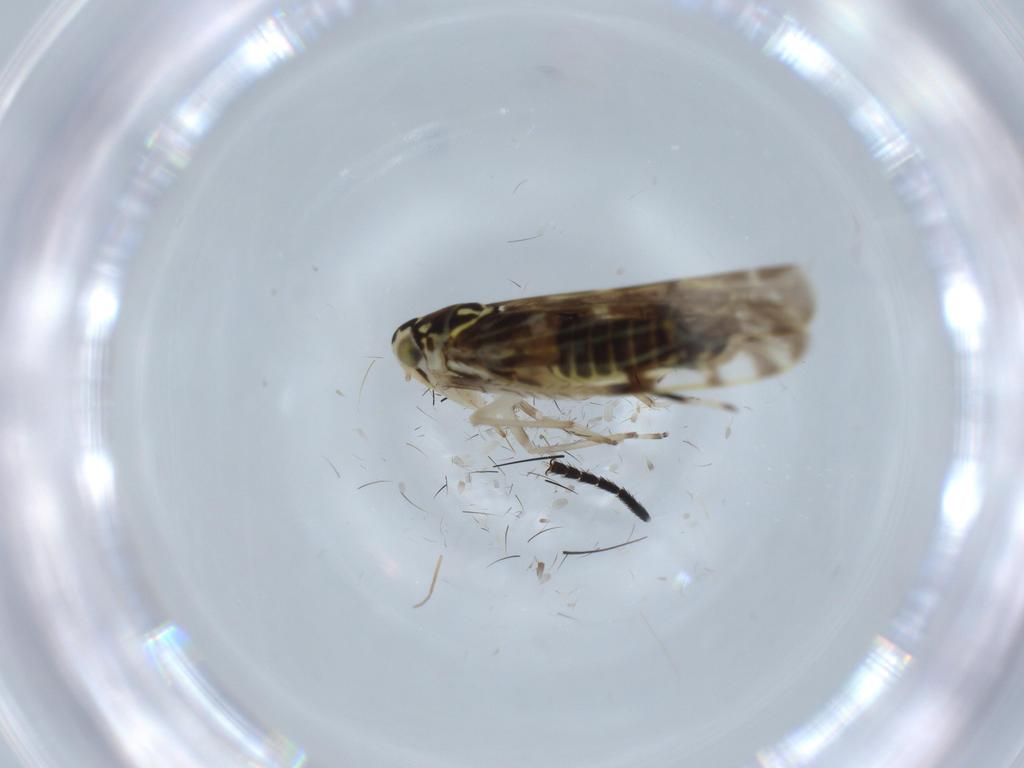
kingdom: Animalia
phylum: Arthropoda
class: Insecta
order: Hemiptera
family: Cicadellidae
